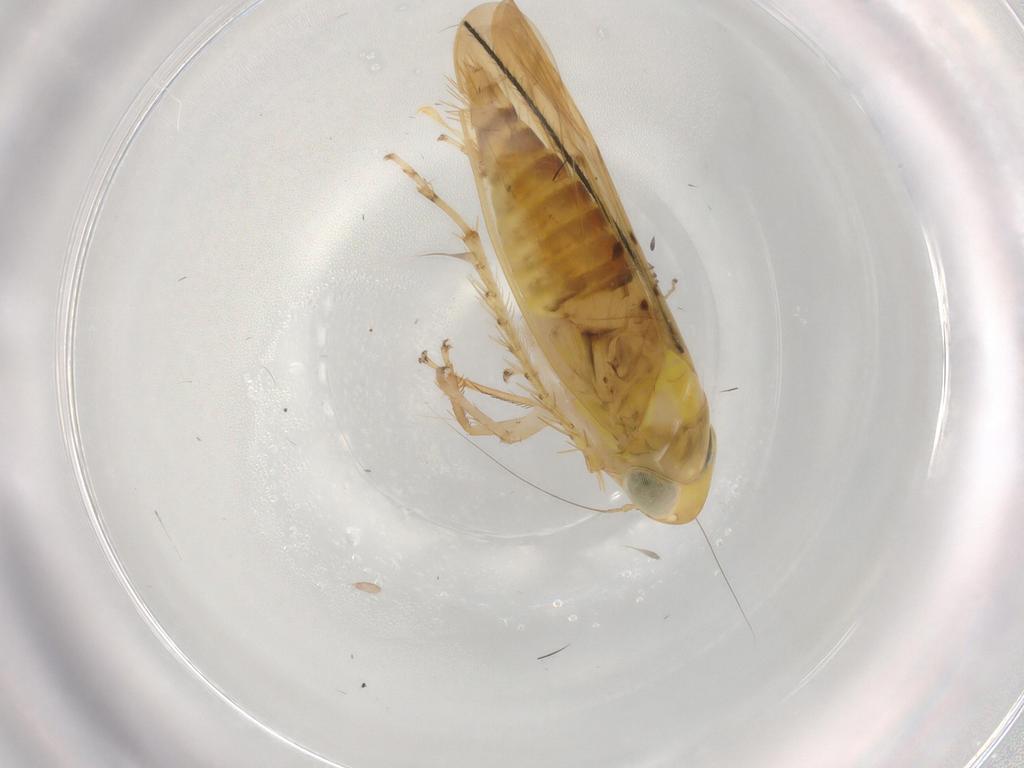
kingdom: Animalia
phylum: Arthropoda
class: Insecta
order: Hemiptera
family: Cicadellidae
